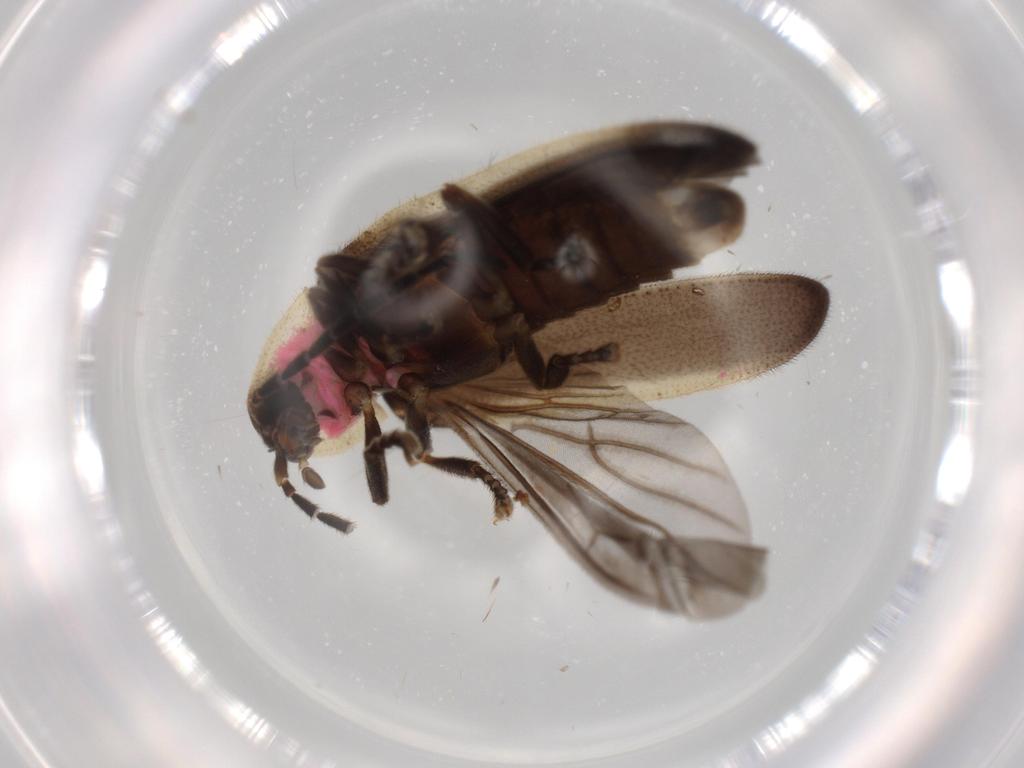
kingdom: Animalia
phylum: Arthropoda
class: Insecta
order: Coleoptera
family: Lampyridae
